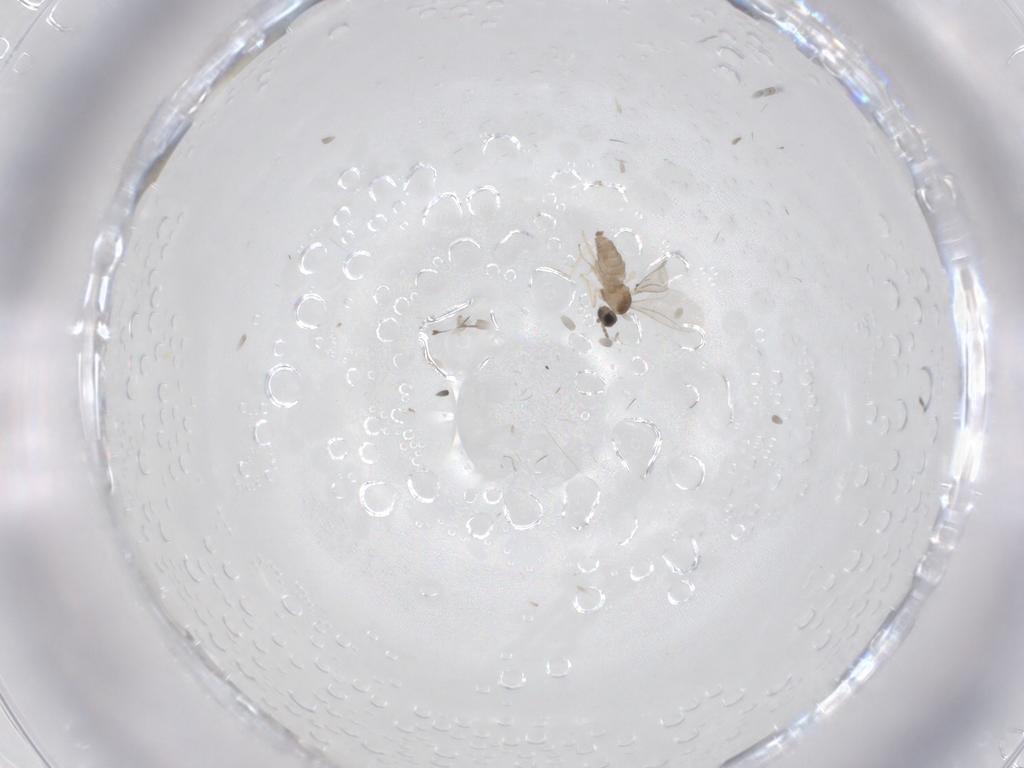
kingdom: Animalia
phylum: Arthropoda
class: Insecta
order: Diptera
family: Cecidomyiidae
